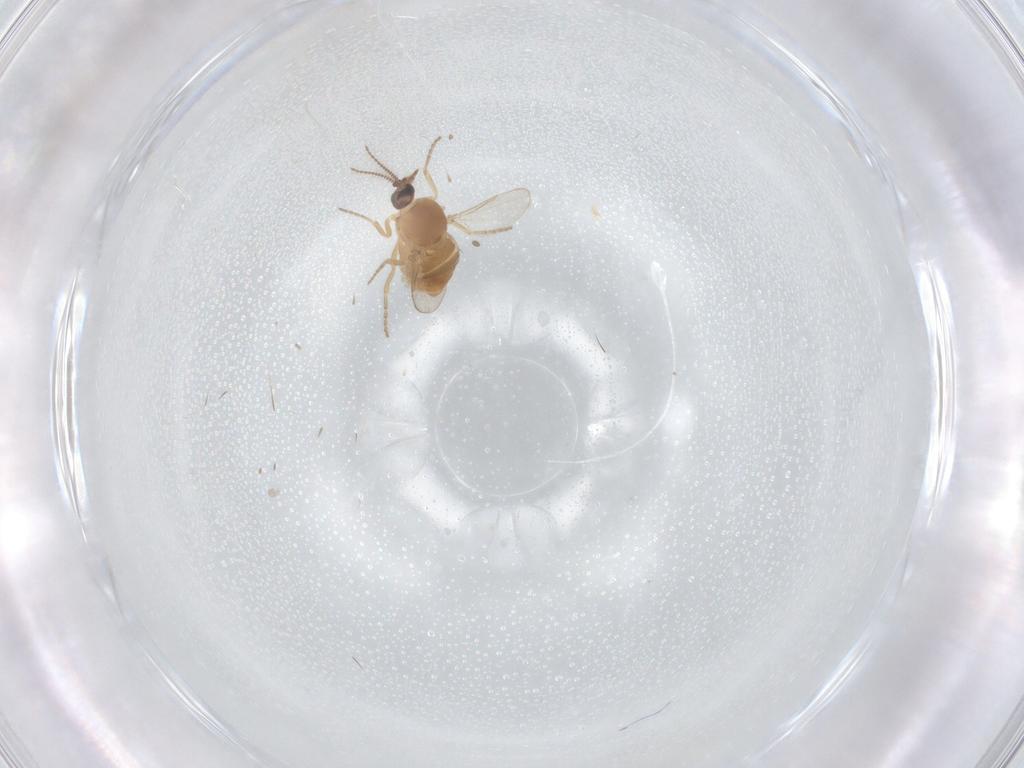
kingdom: Animalia
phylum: Arthropoda
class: Insecta
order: Diptera
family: Ceratopogonidae
